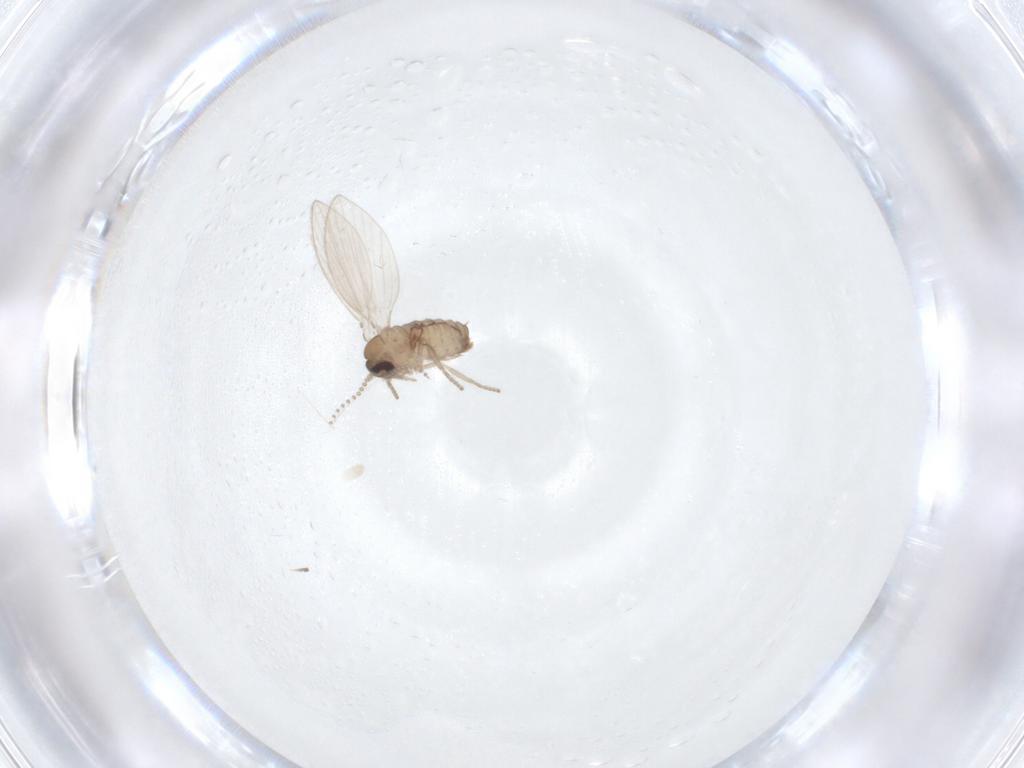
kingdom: Animalia
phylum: Arthropoda
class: Insecta
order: Diptera
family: Psychodidae
